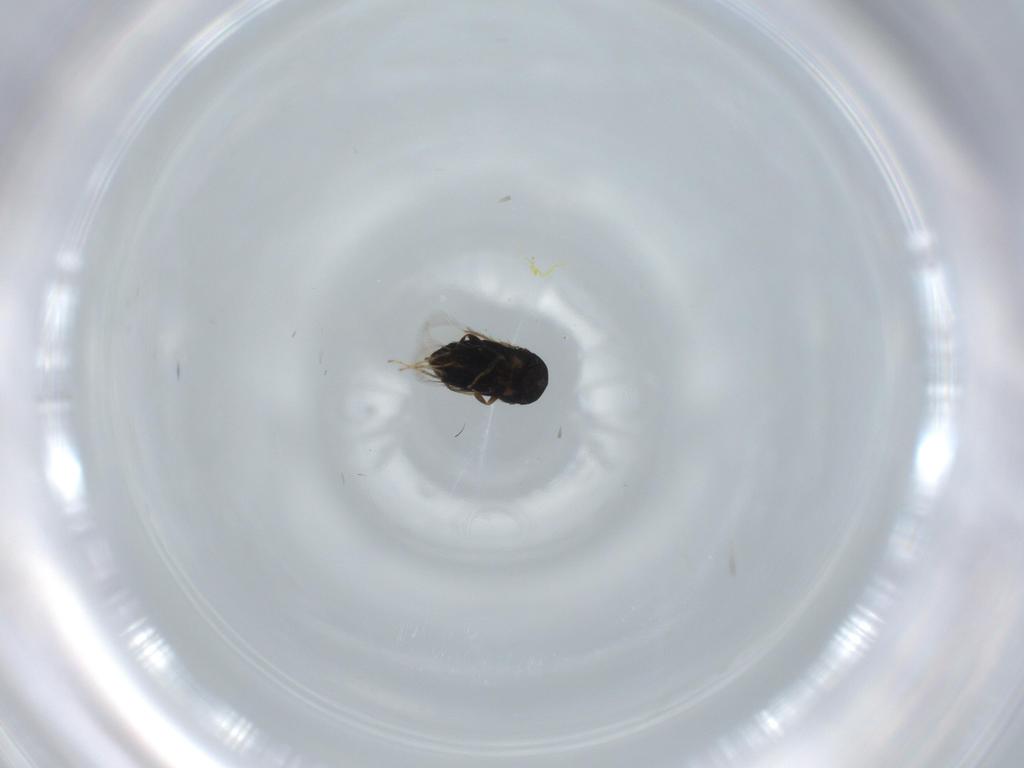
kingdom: Animalia
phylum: Arthropoda
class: Insecta
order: Hymenoptera
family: Signiphoridae
